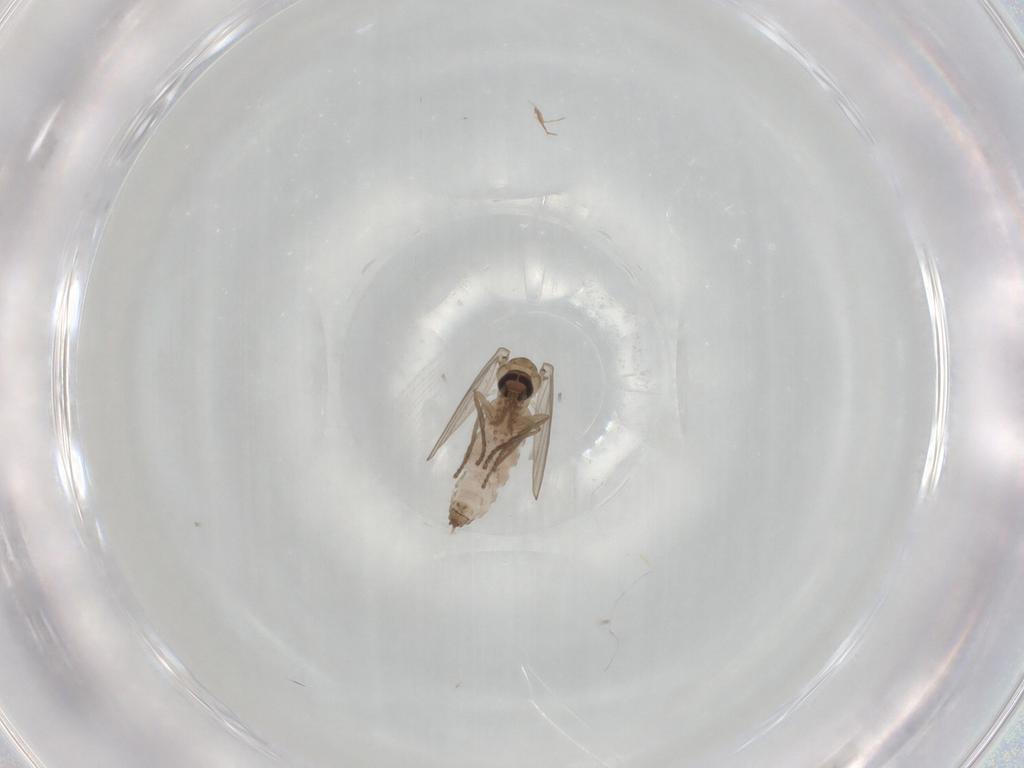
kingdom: Animalia
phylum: Arthropoda
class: Insecta
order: Diptera
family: Psychodidae
